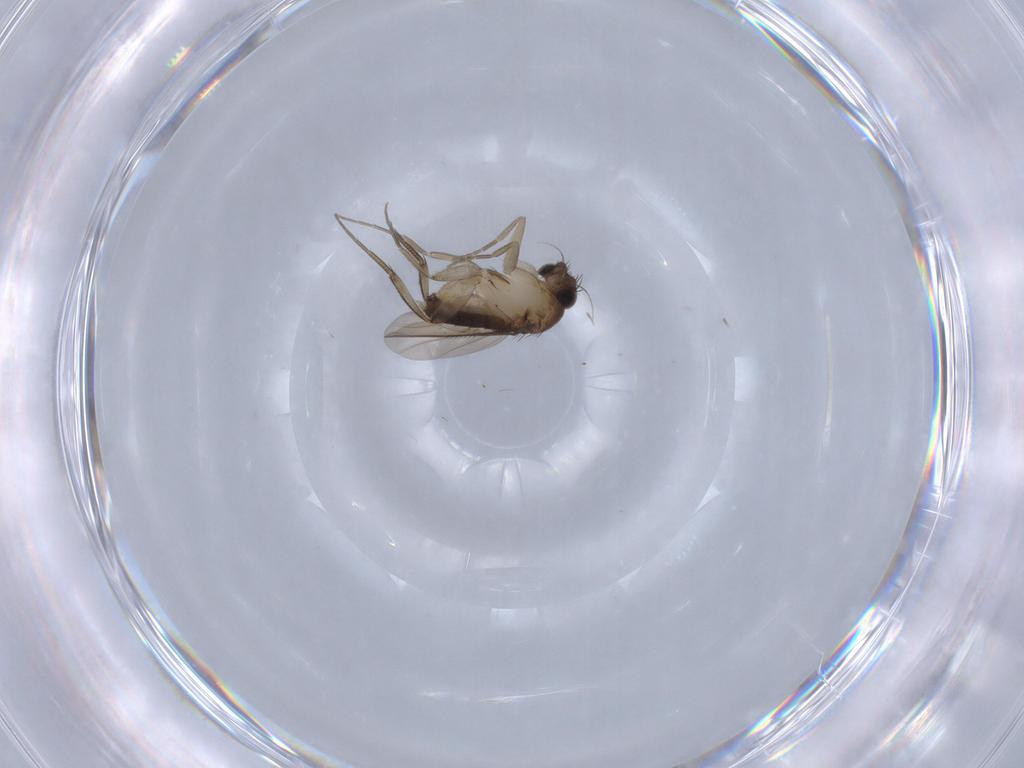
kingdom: Animalia
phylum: Arthropoda
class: Insecta
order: Diptera
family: Phoridae
